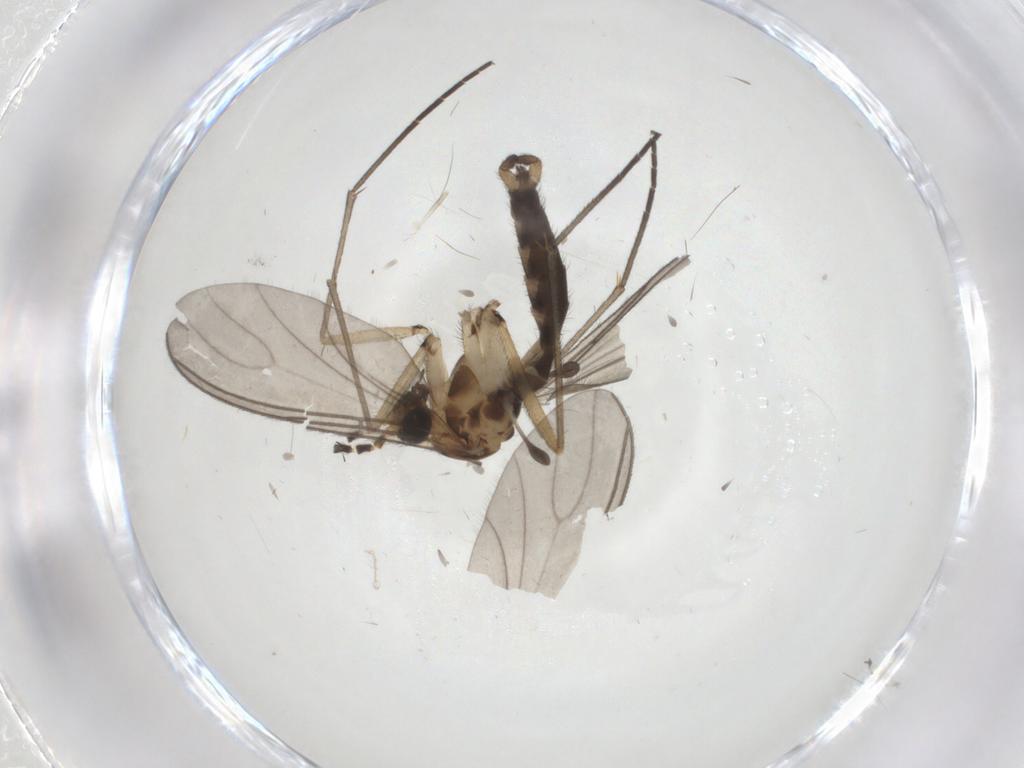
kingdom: Animalia
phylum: Arthropoda
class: Insecta
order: Diptera
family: Sciaridae
